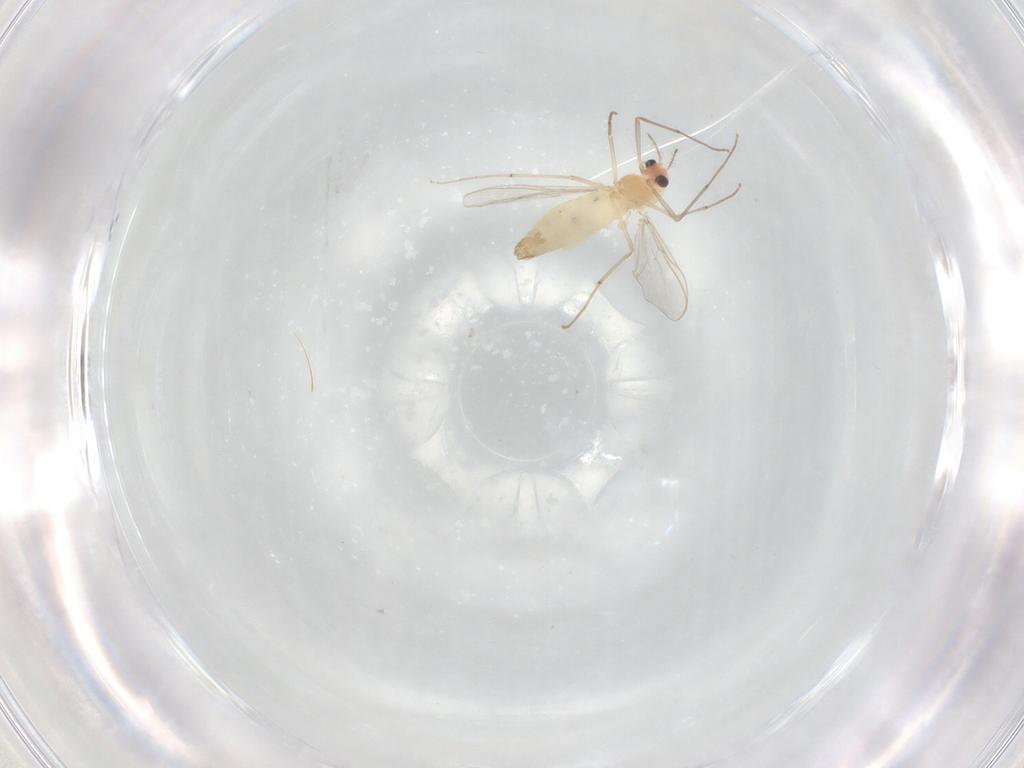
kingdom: Animalia
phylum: Arthropoda
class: Insecta
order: Diptera
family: Chironomidae
